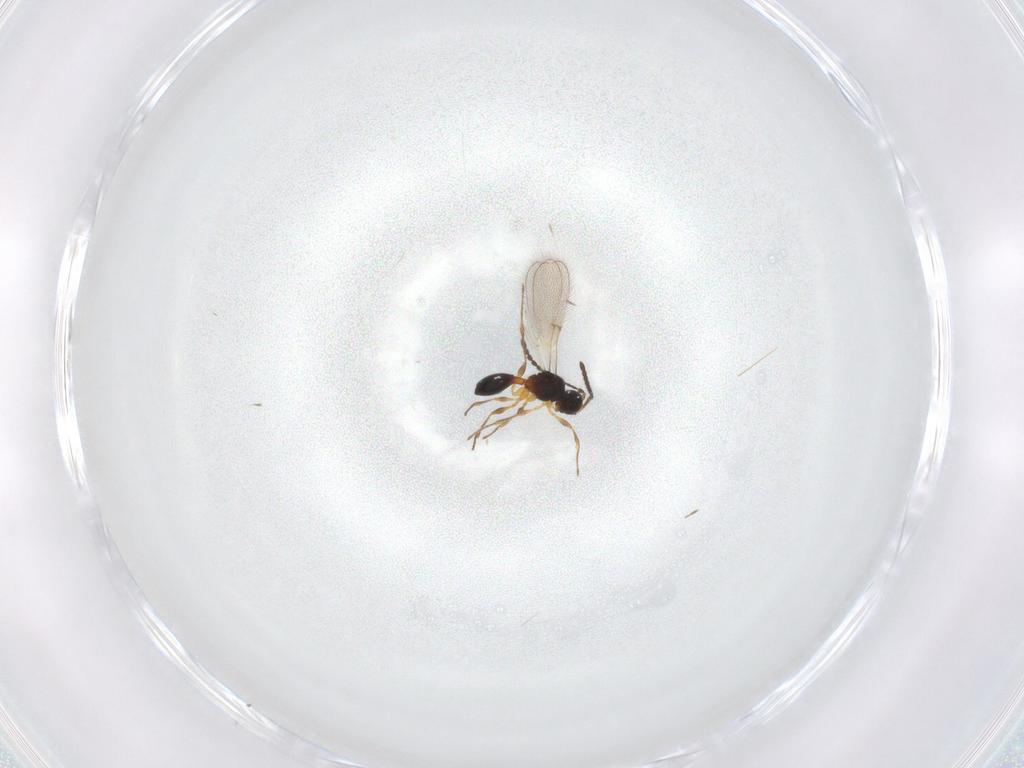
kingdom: Animalia
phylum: Arthropoda
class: Insecta
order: Hymenoptera
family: Diapriidae
